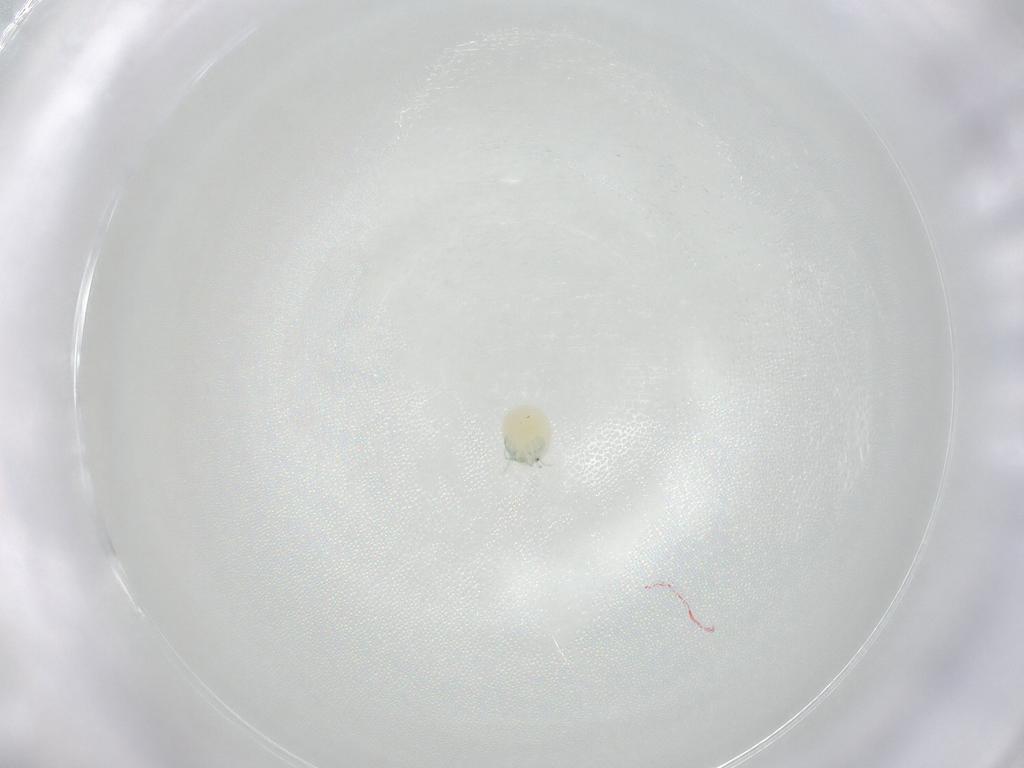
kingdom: Animalia
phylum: Arthropoda
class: Arachnida
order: Trombidiformes
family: Arrenuridae
